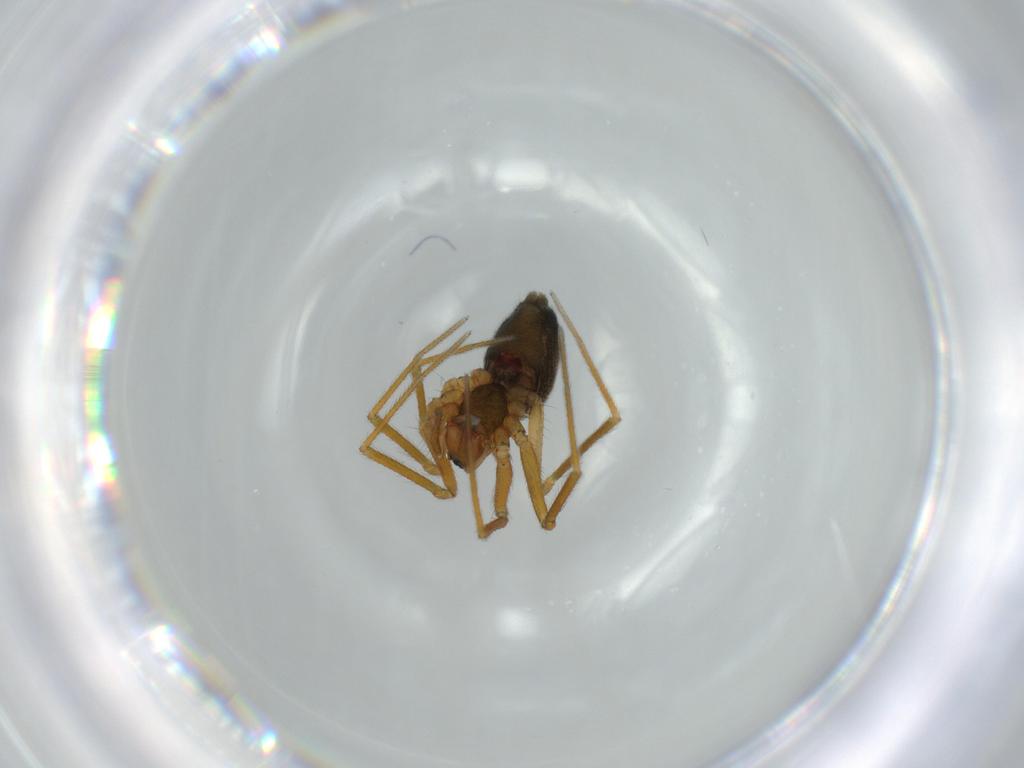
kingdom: Animalia
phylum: Arthropoda
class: Arachnida
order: Araneae
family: Linyphiidae
